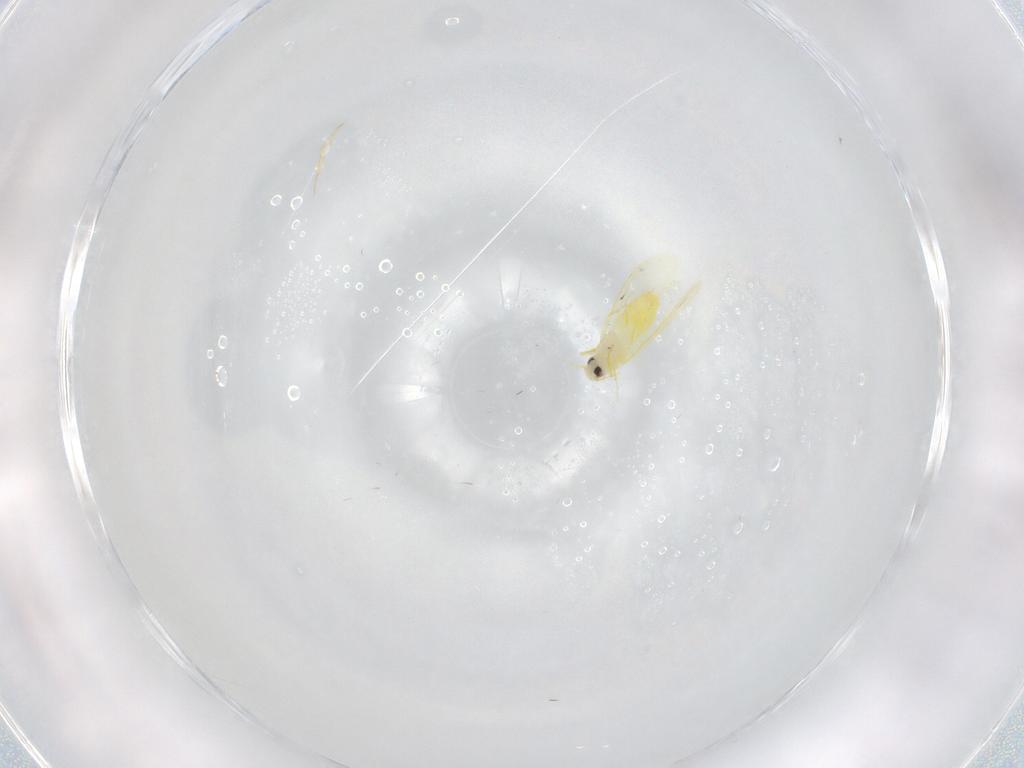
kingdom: Animalia
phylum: Arthropoda
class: Insecta
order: Hemiptera
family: Aleyrodidae
